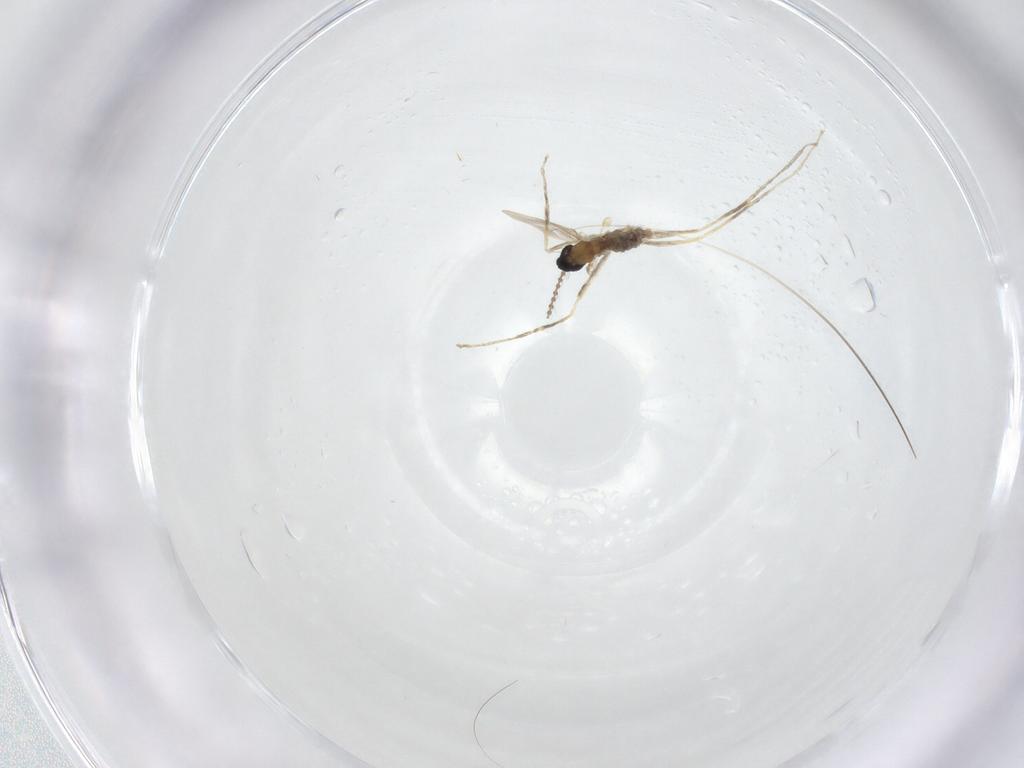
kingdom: Animalia
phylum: Arthropoda
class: Insecta
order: Diptera
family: Cecidomyiidae
